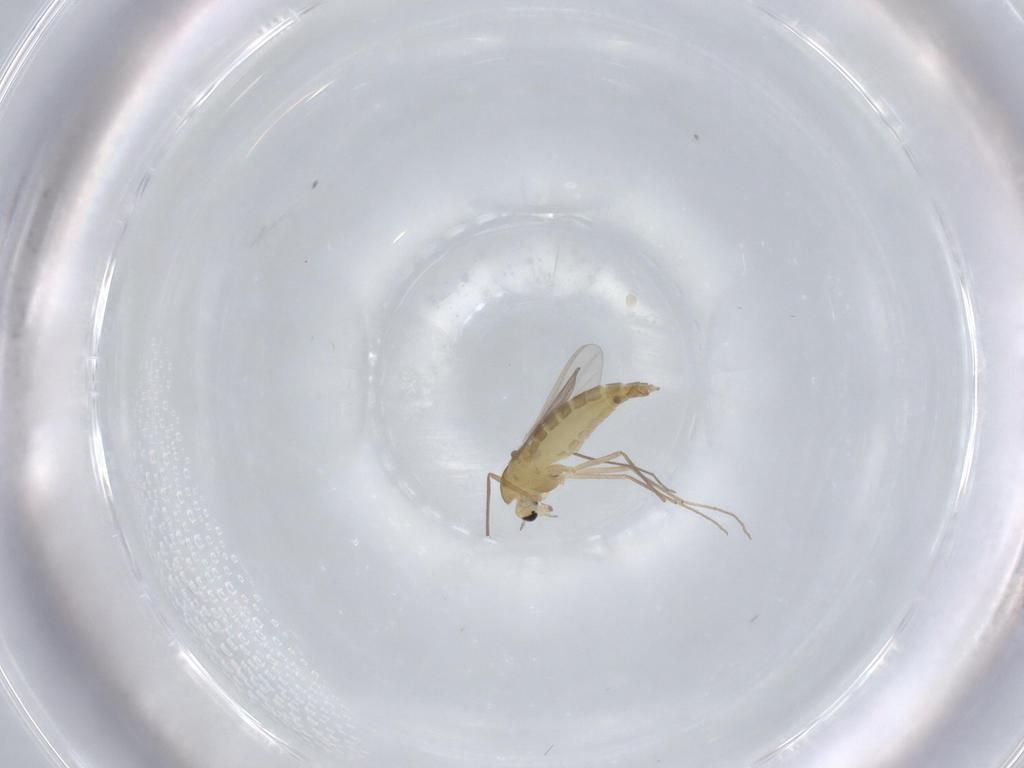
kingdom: Animalia
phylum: Arthropoda
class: Insecta
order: Diptera
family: Chironomidae
